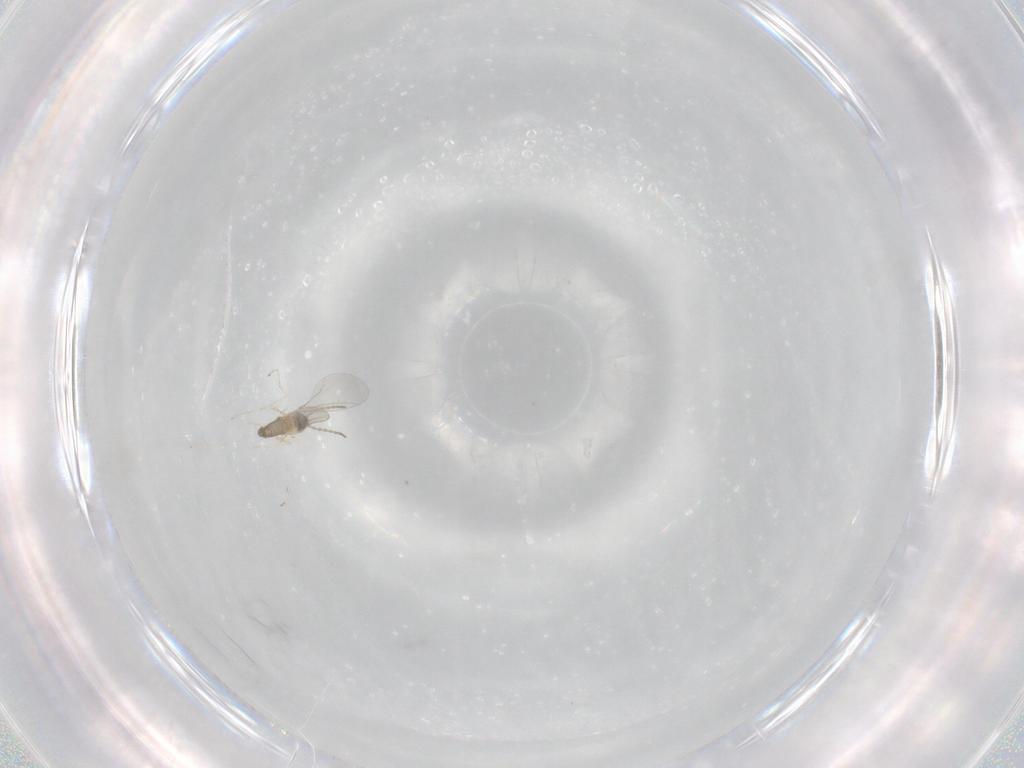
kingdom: Animalia
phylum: Arthropoda
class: Insecta
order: Diptera
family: Cecidomyiidae
